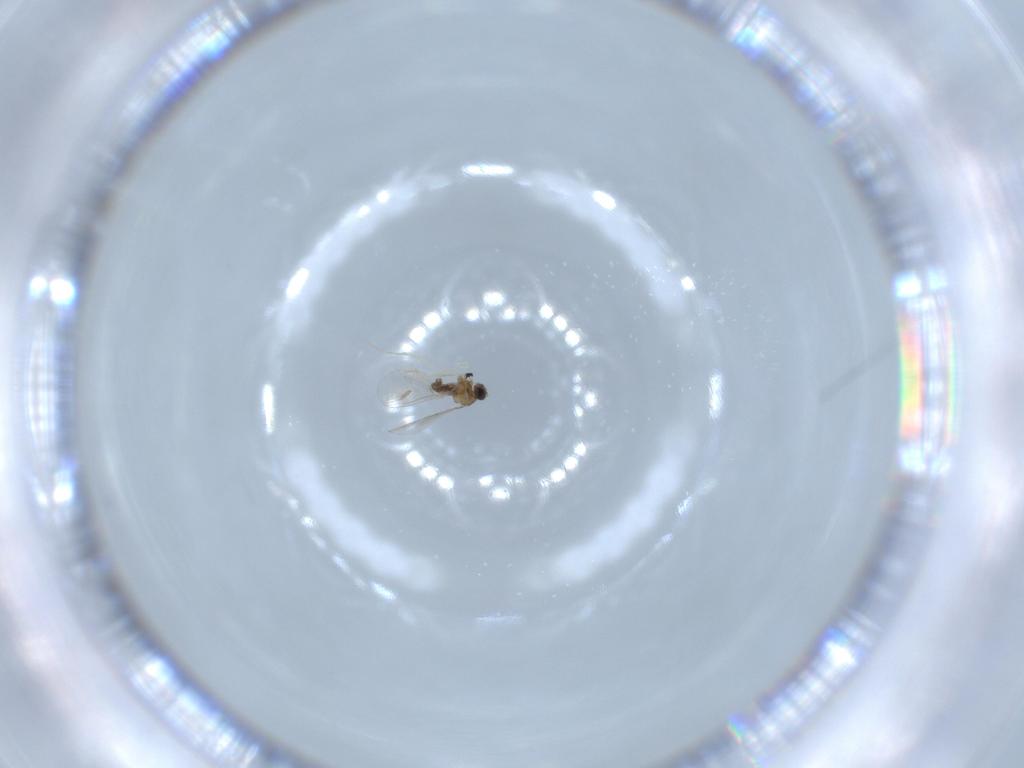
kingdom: Animalia
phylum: Arthropoda
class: Insecta
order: Diptera
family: Cecidomyiidae
